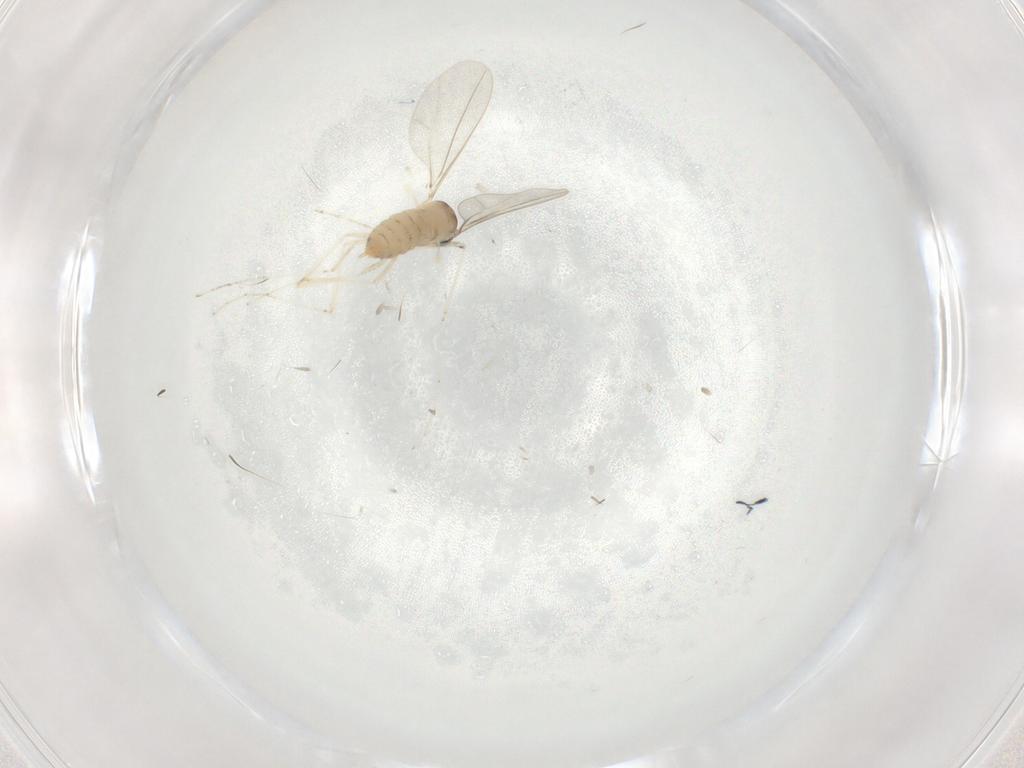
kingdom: Animalia
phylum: Arthropoda
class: Insecta
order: Diptera
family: Cecidomyiidae
